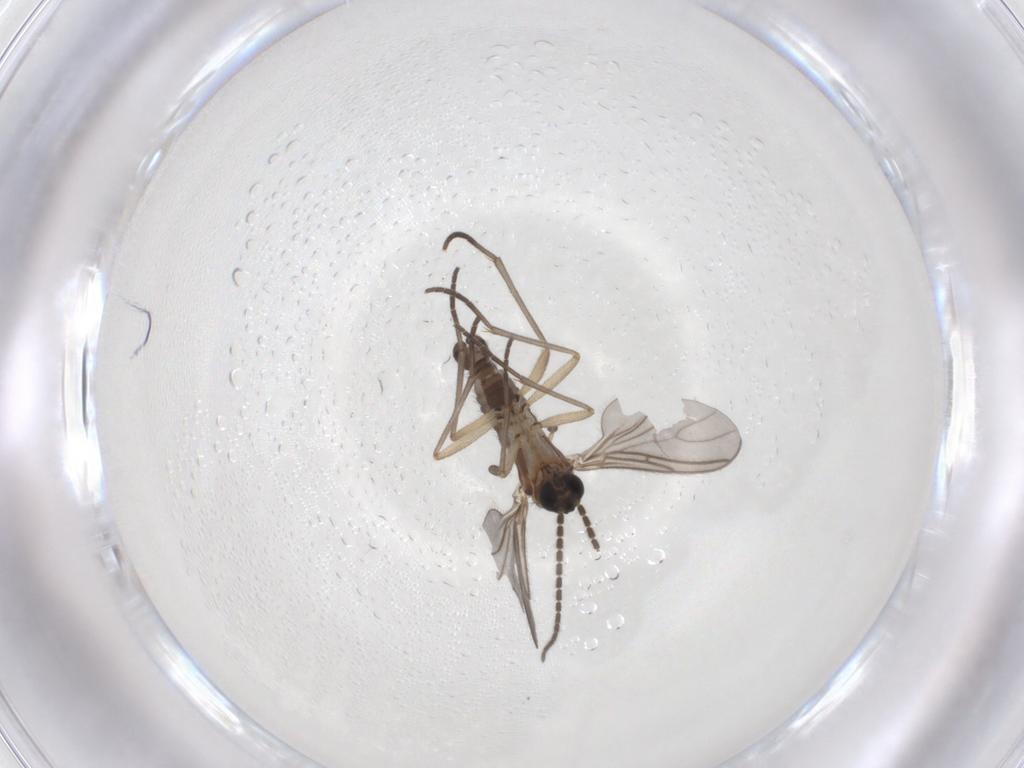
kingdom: Animalia
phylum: Arthropoda
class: Insecta
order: Diptera
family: Sciaridae
